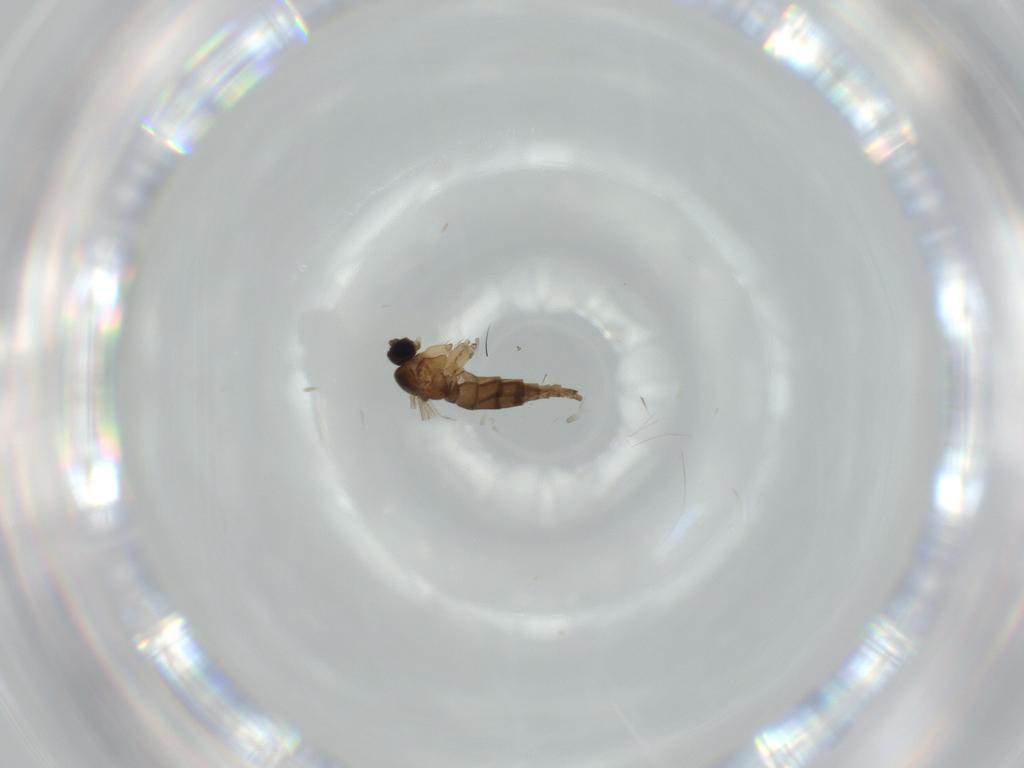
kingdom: Animalia
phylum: Arthropoda
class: Insecta
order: Diptera
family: Sciaridae
